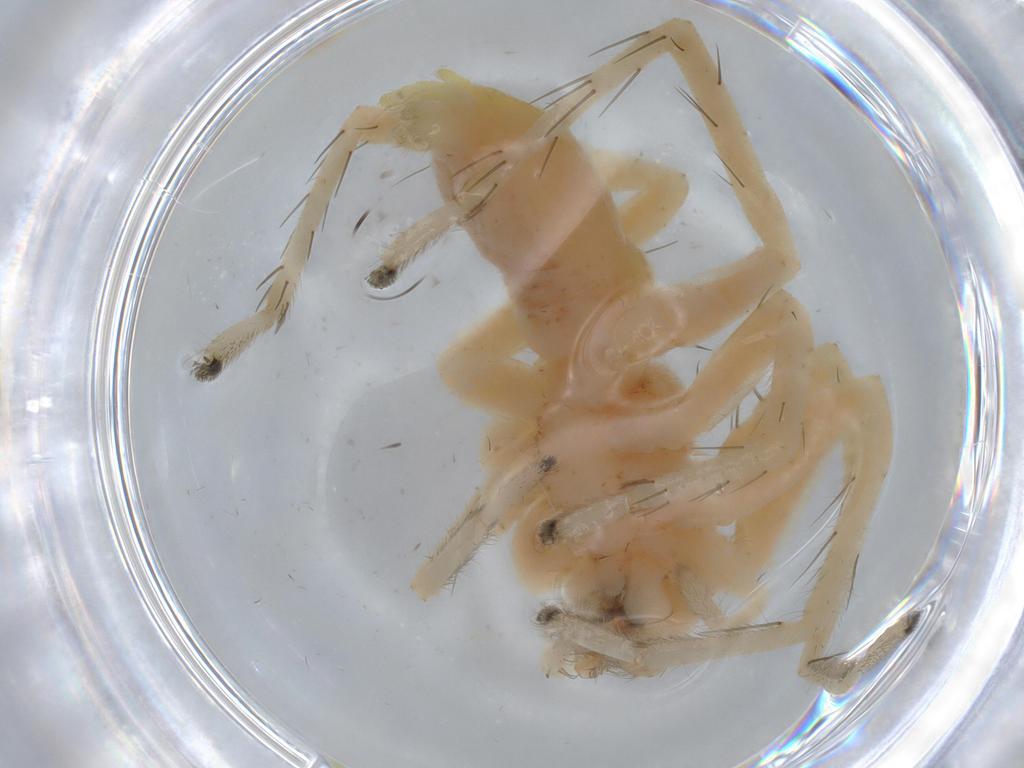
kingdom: Animalia
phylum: Arthropoda
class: Arachnida
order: Araneae
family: Anyphaenidae
